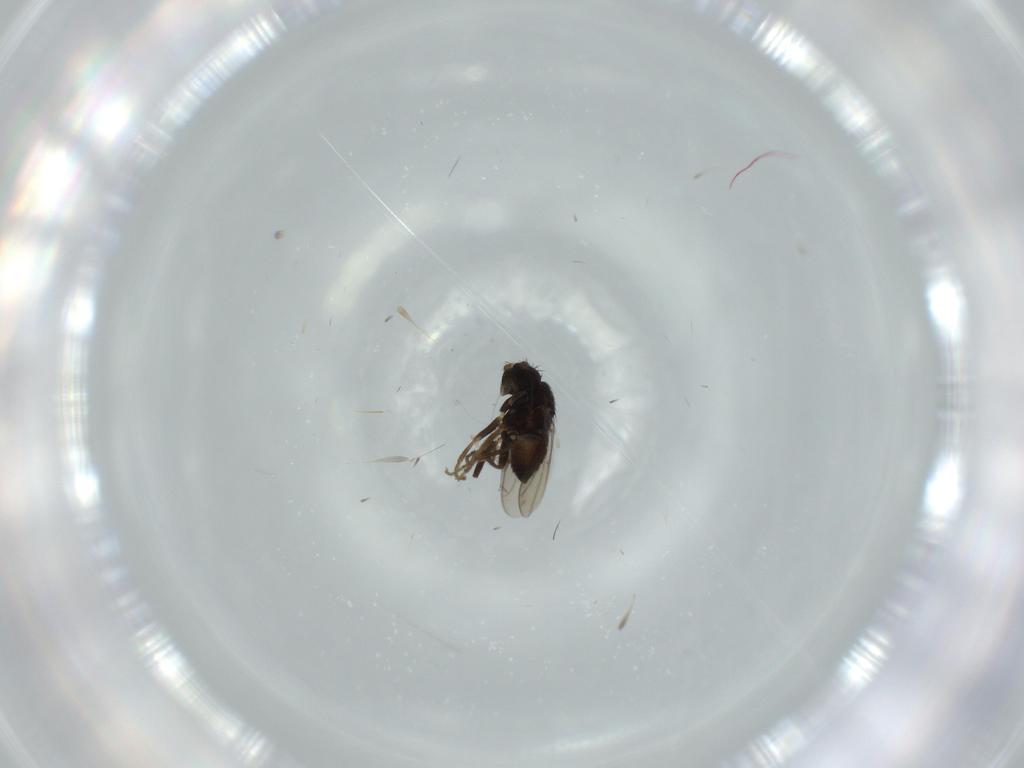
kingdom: Animalia
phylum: Arthropoda
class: Insecta
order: Diptera
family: Sphaeroceridae
